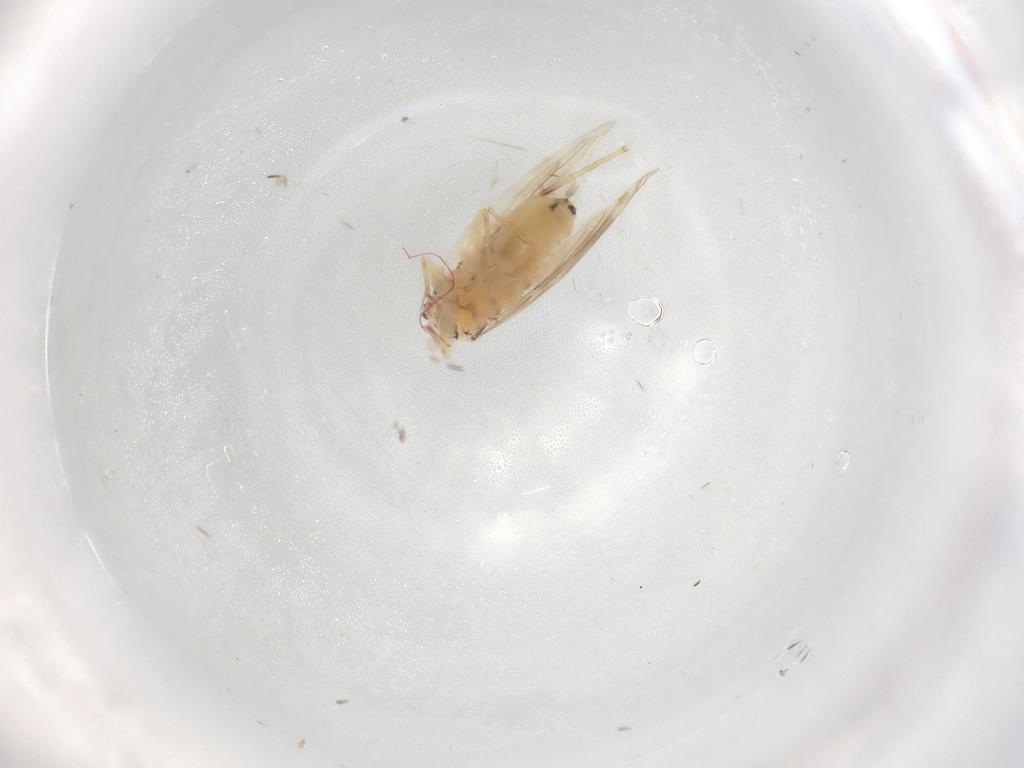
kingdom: Animalia
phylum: Arthropoda
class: Insecta
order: Psocodea
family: Lepidopsocidae
